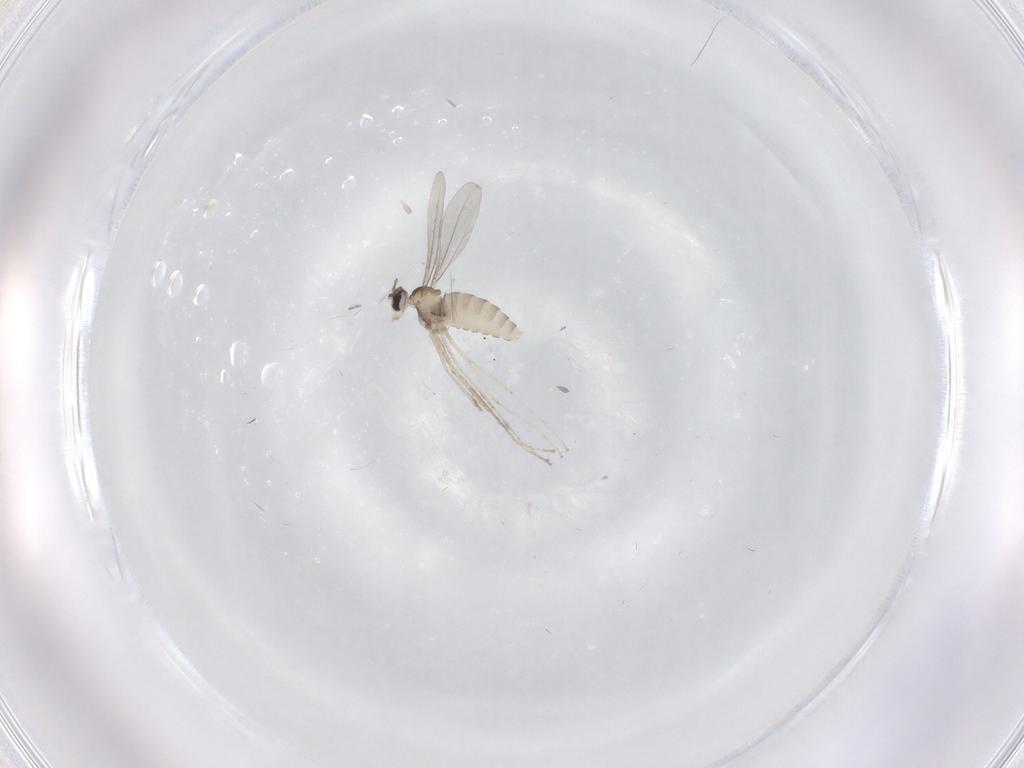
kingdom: Animalia
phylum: Arthropoda
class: Insecta
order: Diptera
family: Cecidomyiidae
